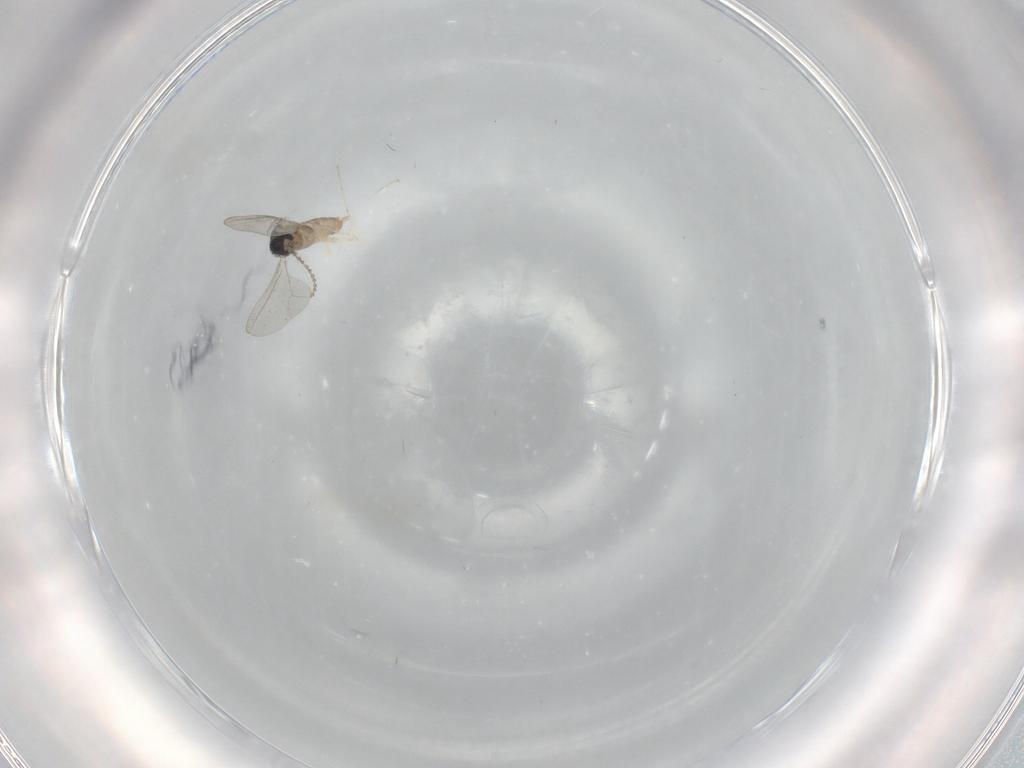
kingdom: Animalia
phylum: Arthropoda
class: Insecta
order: Diptera
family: Cecidomyiidae
